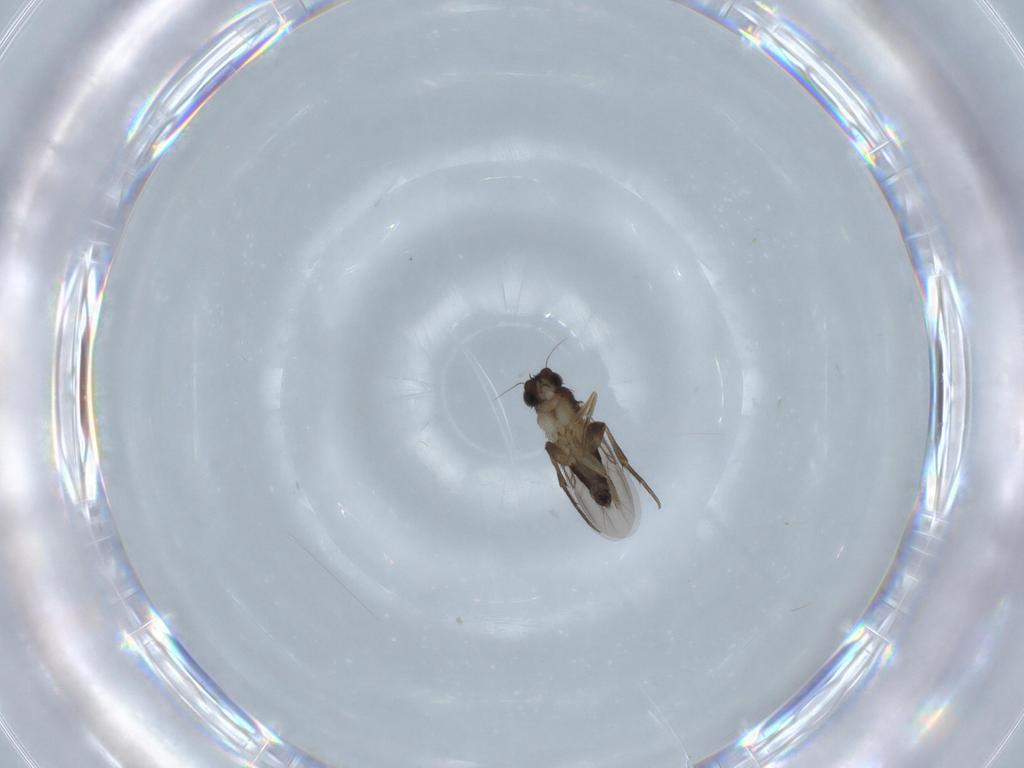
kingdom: Animalia
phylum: Arthropoda
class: Insecta
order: Diptera
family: Phoridae
